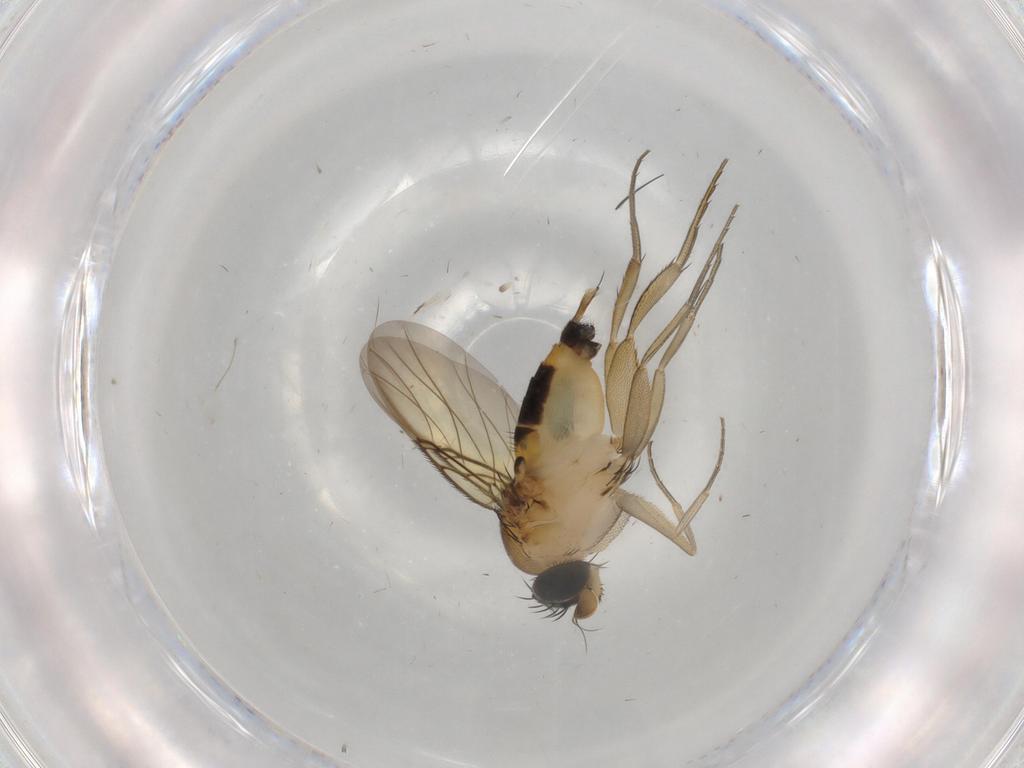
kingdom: Animalia
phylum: Arthropoda
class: Insecta
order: Diptera
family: Phoridae
